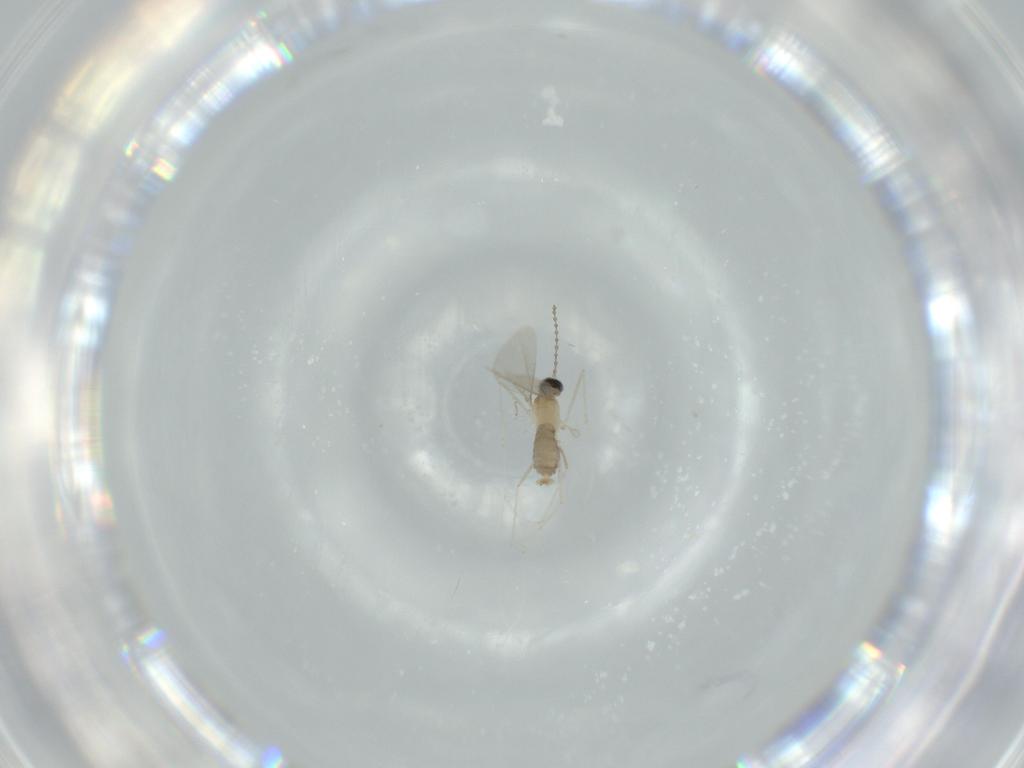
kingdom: Animalia
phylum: Arthropoda
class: Insecta
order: Diptera
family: Cecidomyiidae
